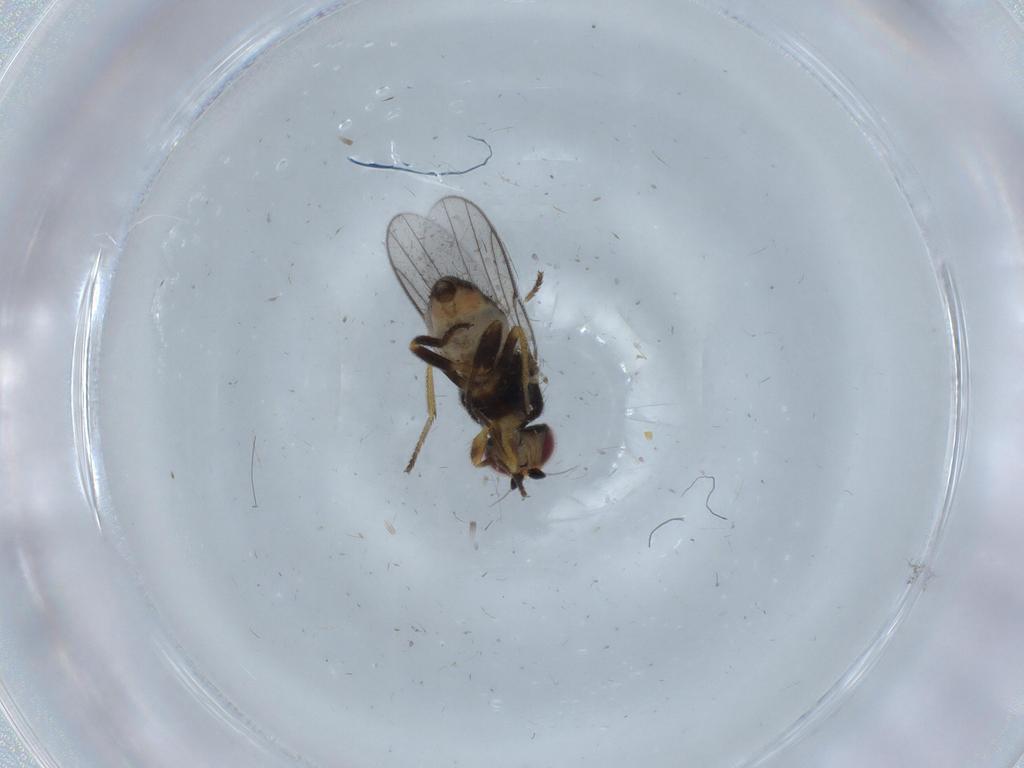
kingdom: Animalia
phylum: Arthropoda
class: Insecta
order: Diptera
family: Chloropidae
